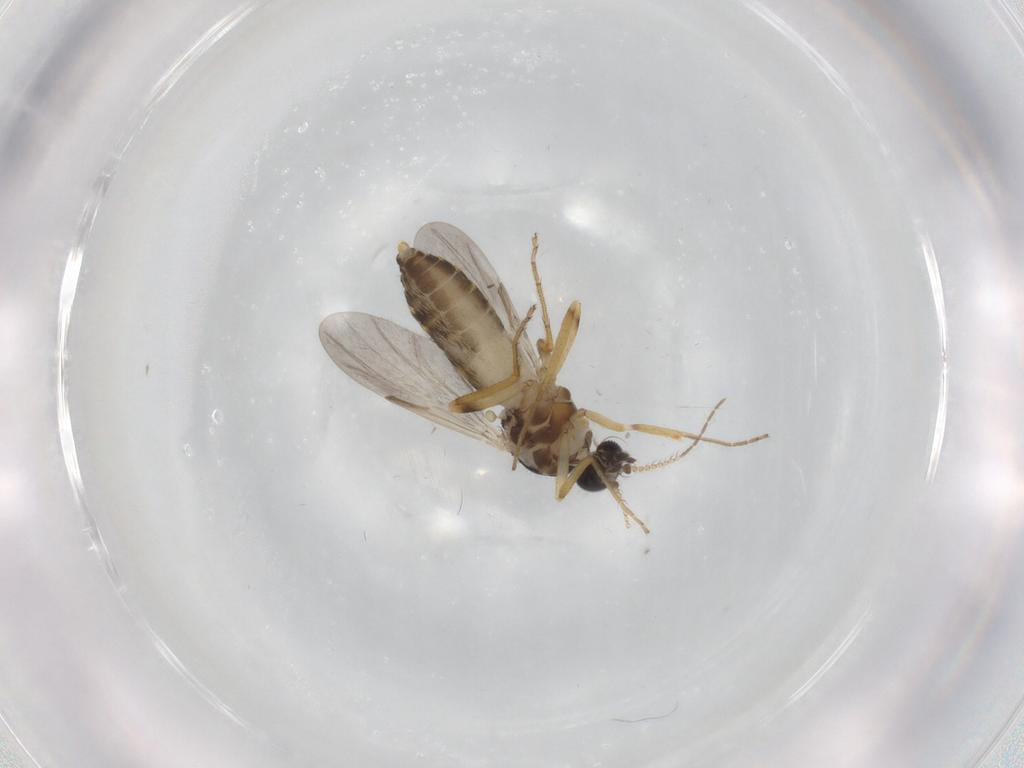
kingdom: Animalia
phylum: Arthropoda
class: Insecta
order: Diptera
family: Ceratopogonidae
